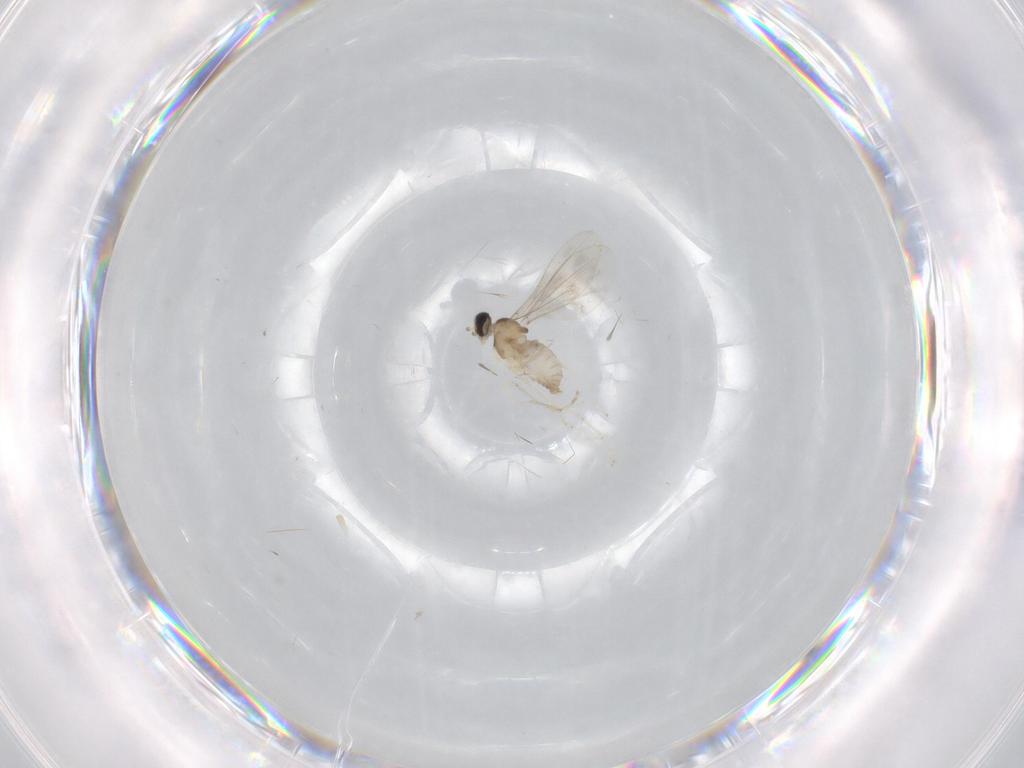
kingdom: Animalia
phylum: Arthropoda
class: Insecta
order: Diptera
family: Cecidomyiidae
